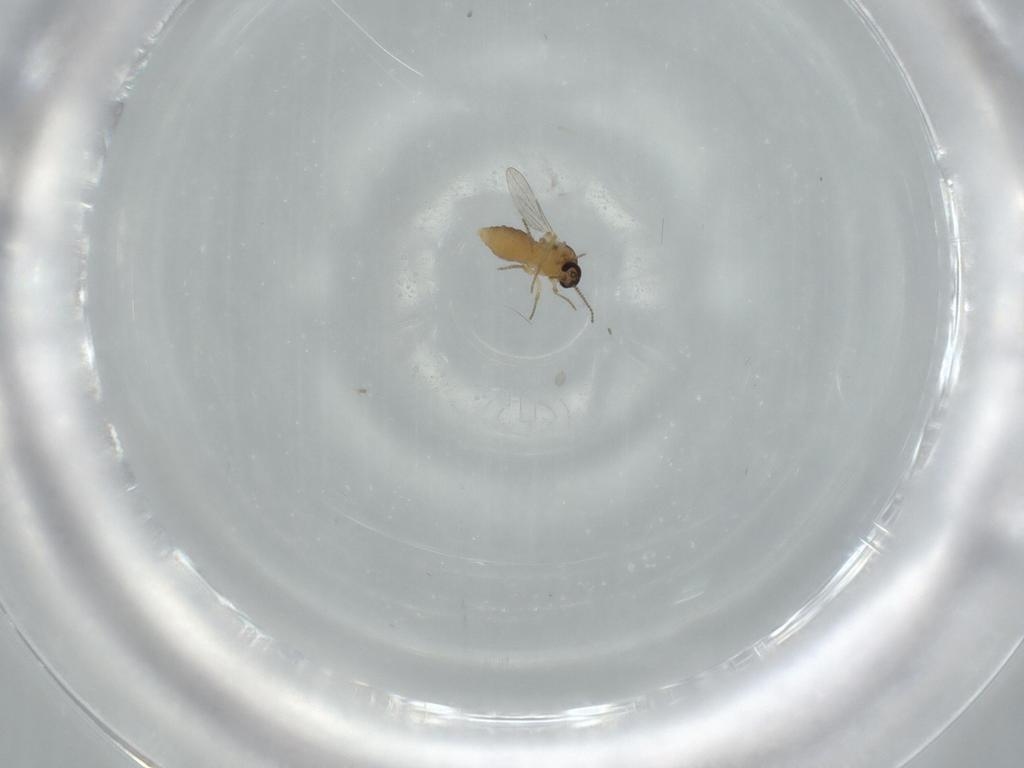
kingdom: Animalia
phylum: Arthropoda
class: Insecta
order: Diptera
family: Ceratopogonidae
